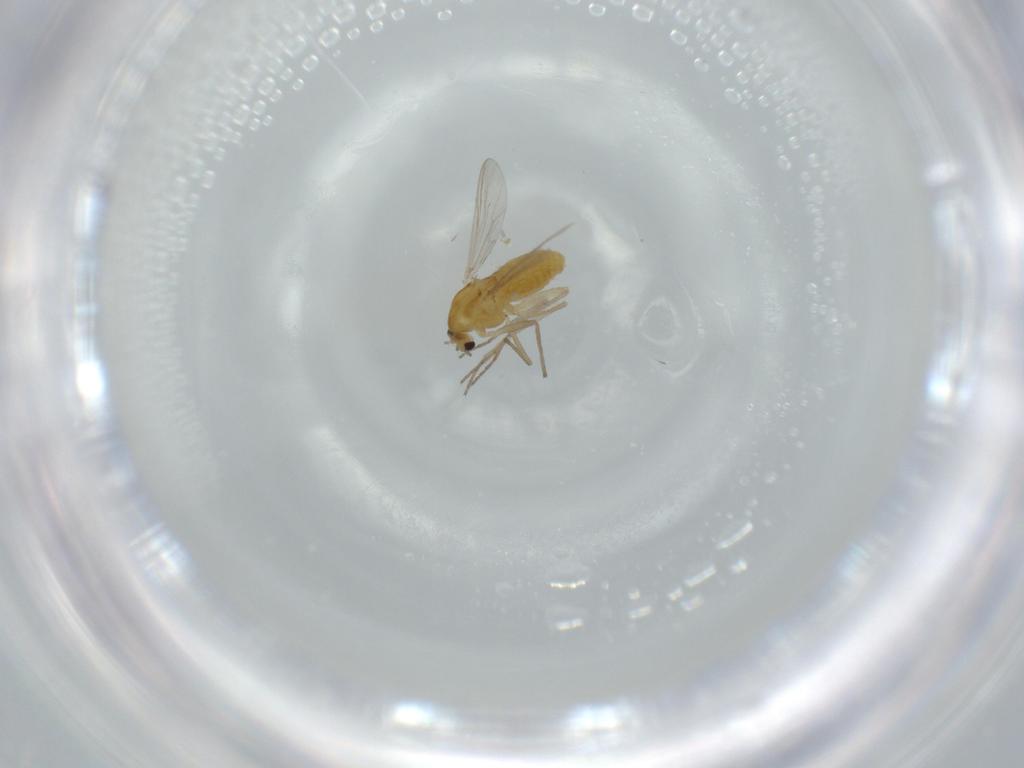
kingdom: Animalia
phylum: Arthropoda
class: Insecta
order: Diptera
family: Chironomidae
